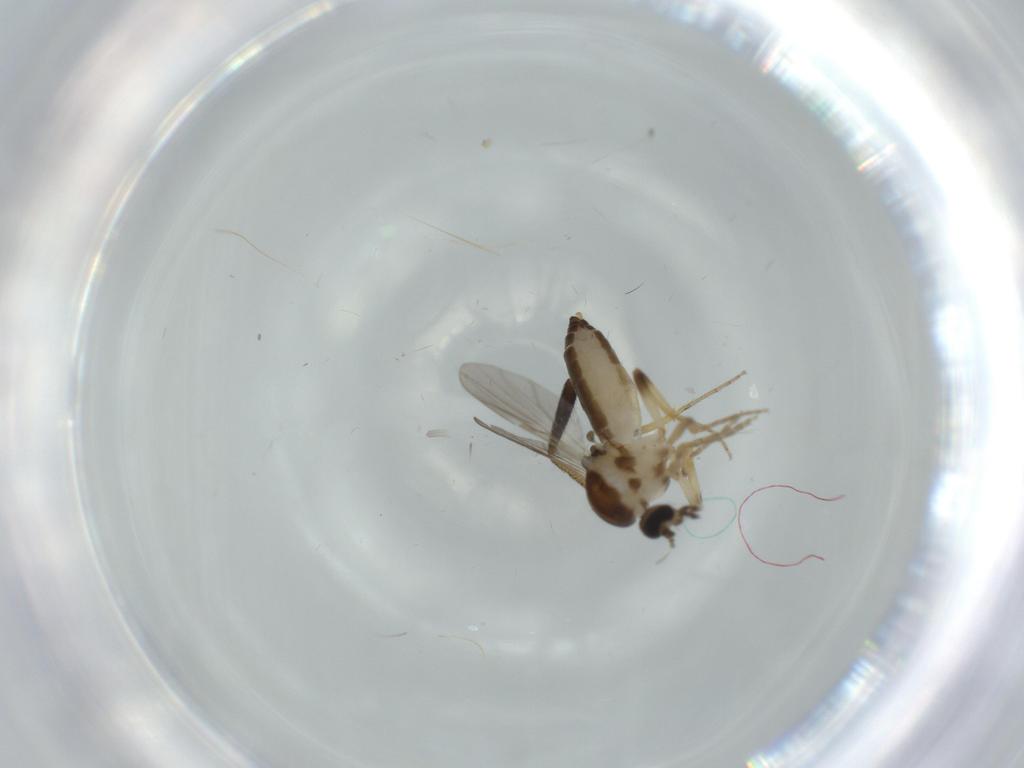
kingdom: Animalia
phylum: Arthropoda
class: Insecta
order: Diptera
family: Ceratopogonidae
